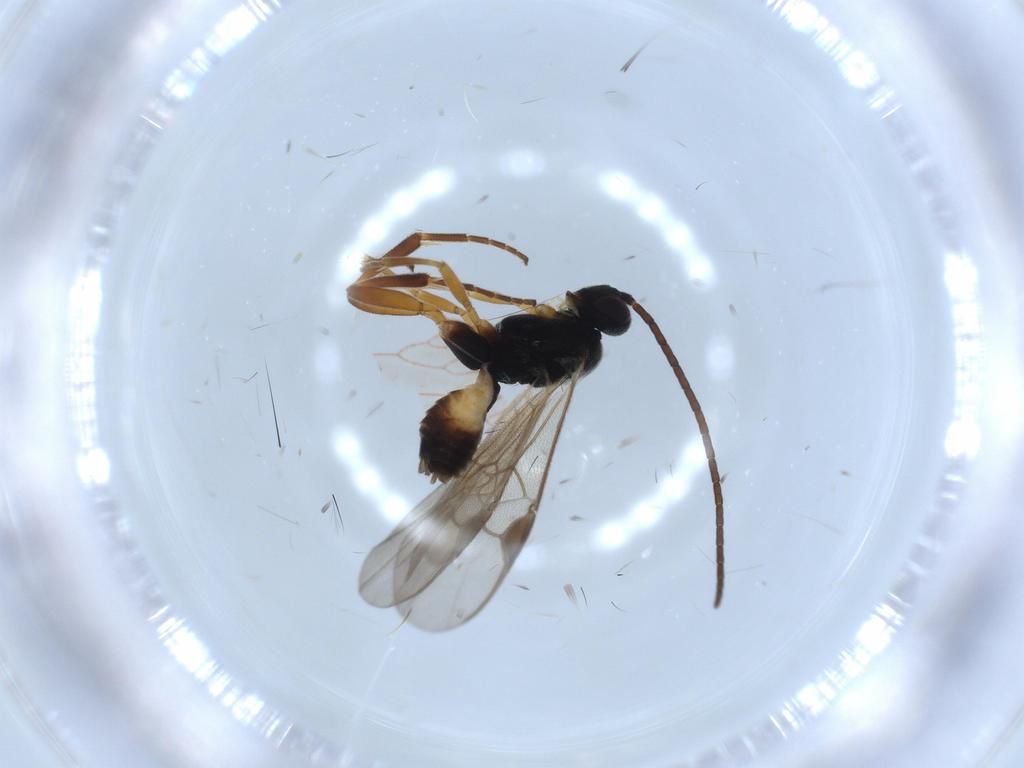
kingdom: Animalia
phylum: Arthropoda
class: Insecta
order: Hymenoptera
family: Braconidae
